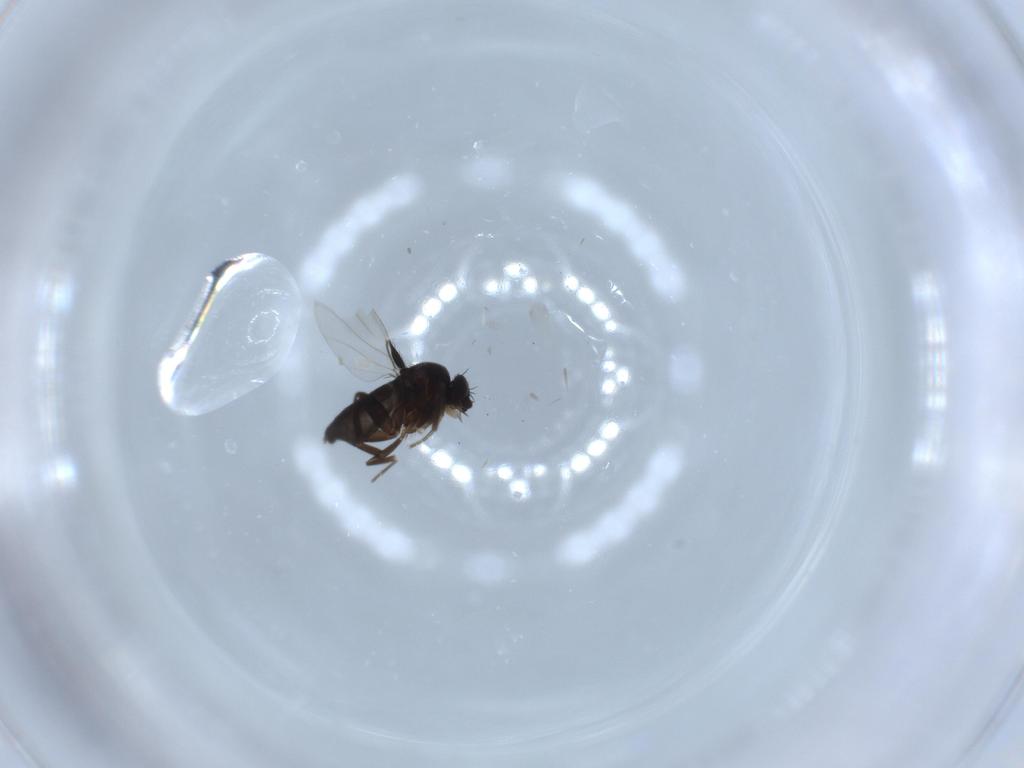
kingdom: Animalia
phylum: Arthropoda
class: Insecta
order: Diptera
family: Phoridae
